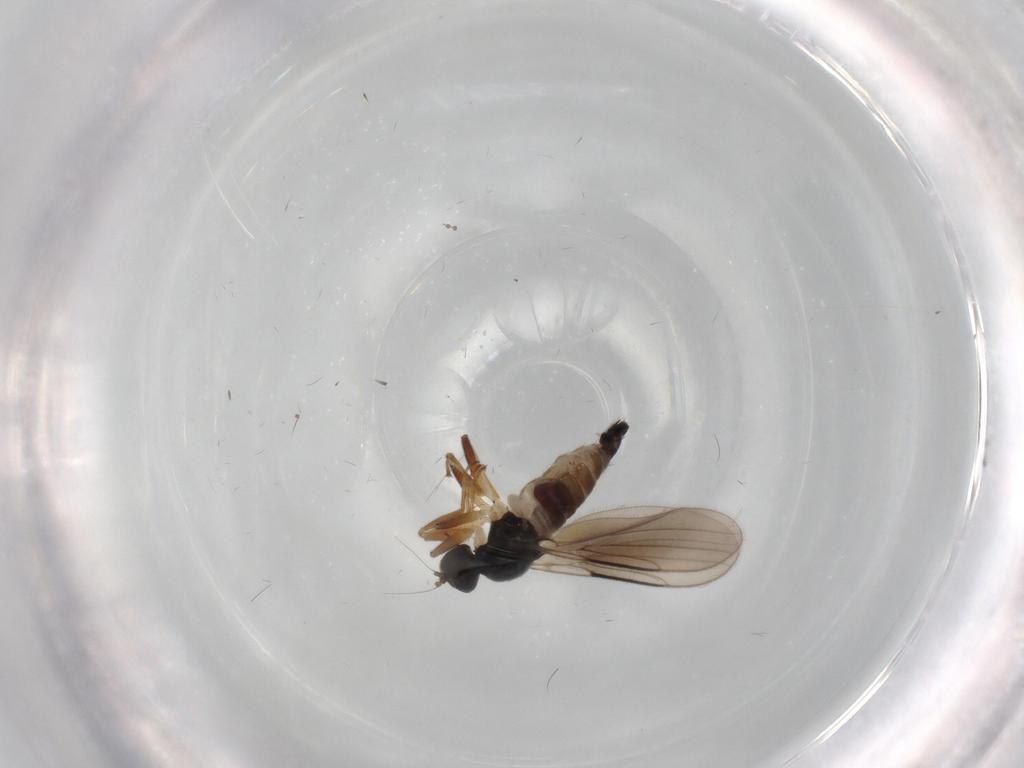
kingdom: Animalia
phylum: Arthropoda
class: Insecta
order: Diptera
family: Hybotidae
